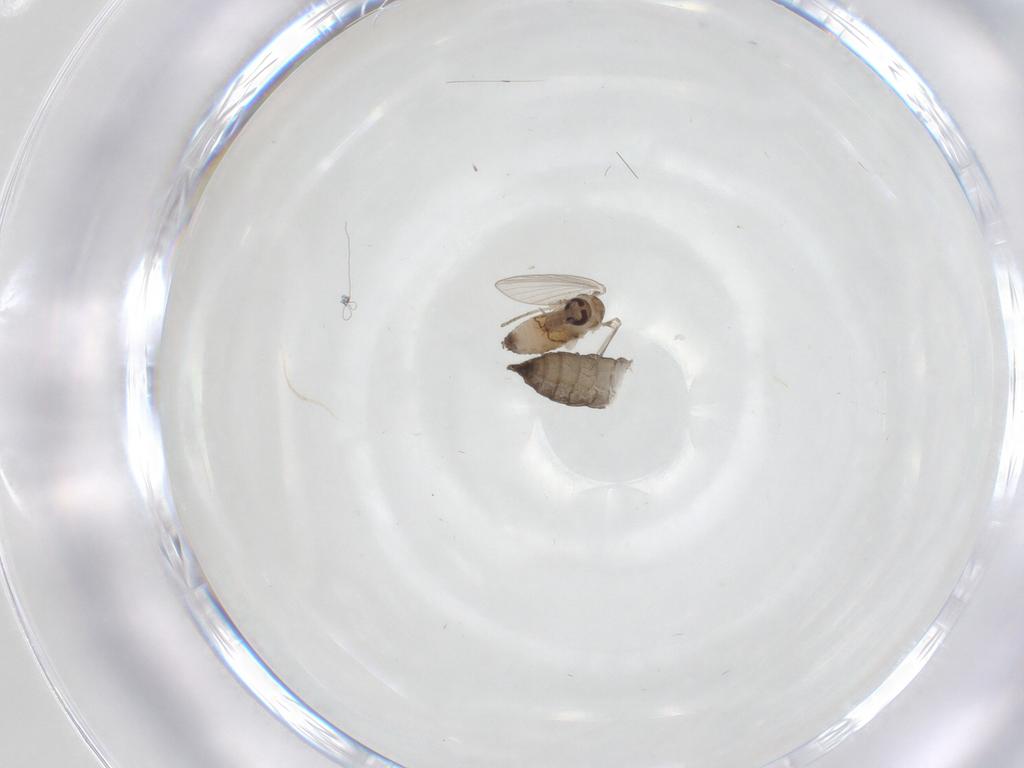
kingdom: Animalia
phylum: Arthropoda
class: Insecta
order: Diptera
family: Sciaridae
